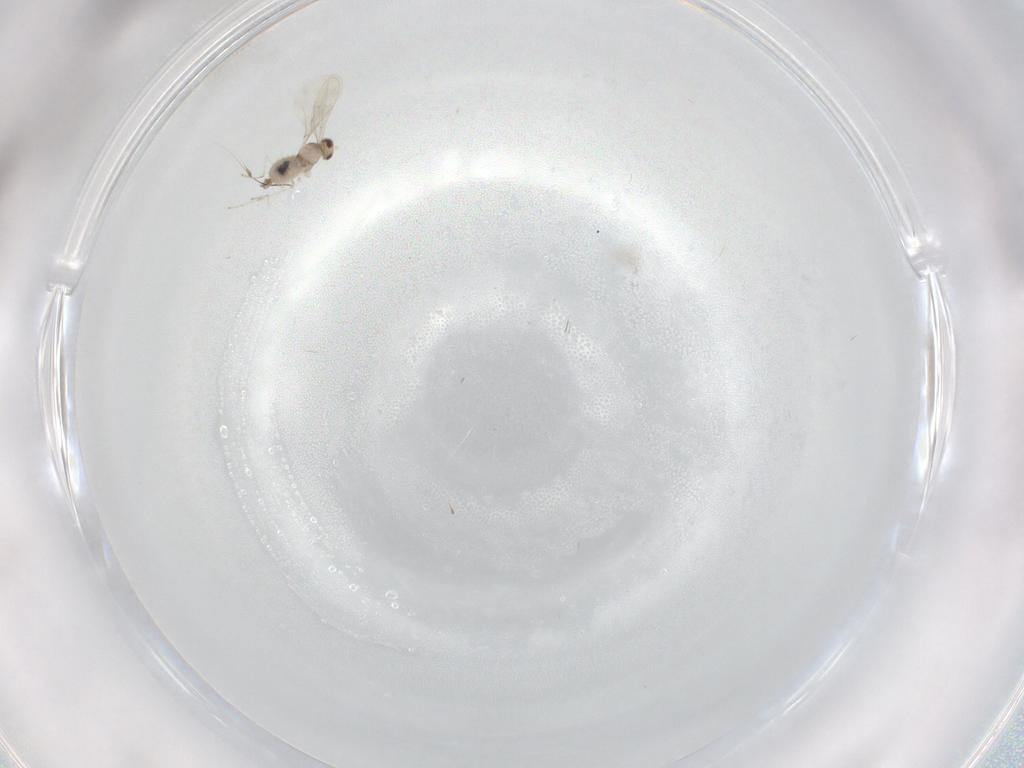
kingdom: Animalia
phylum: Arthropoda
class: Insecta
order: Diptera
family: Cecidomyiidae
